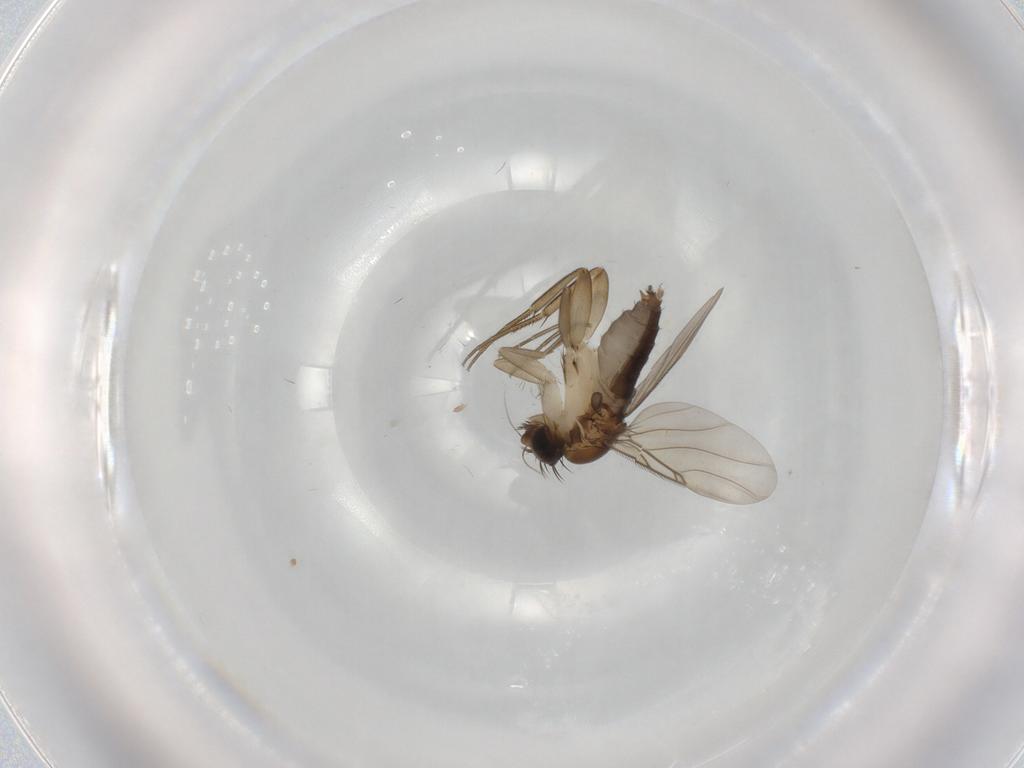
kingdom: Animalia
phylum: Arthropoda
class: Insecta
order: Diptera
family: Phoridae
